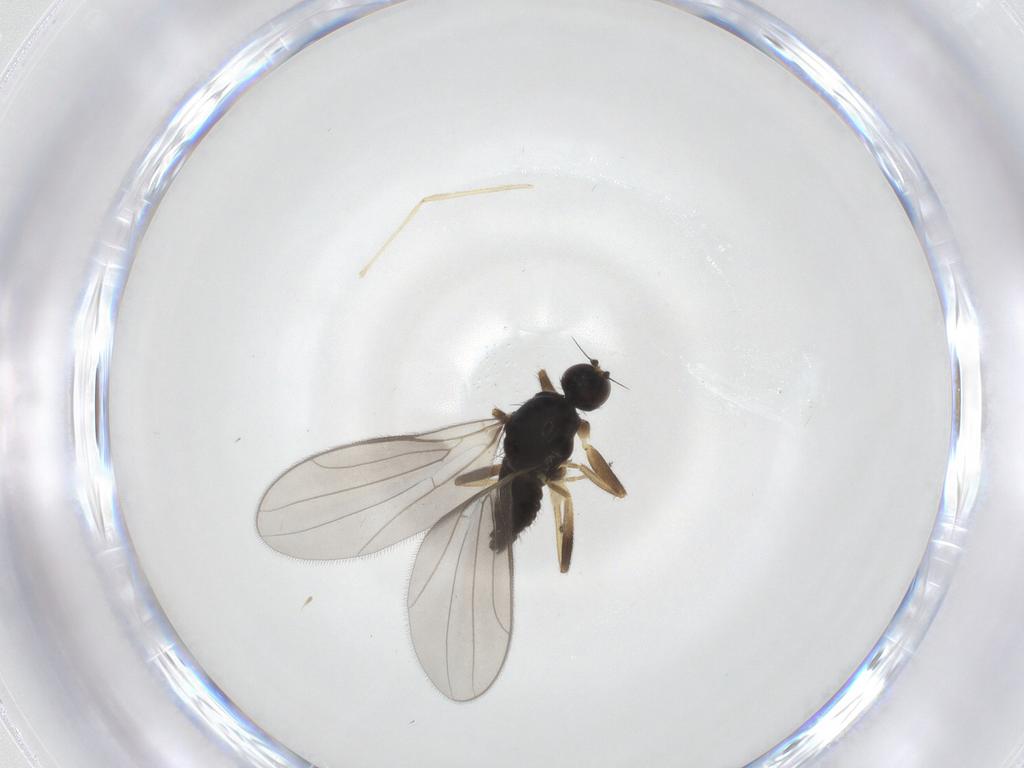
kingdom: Animalia
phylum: Arthropoda
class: Insecta
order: Diptera
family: Hybotidae
